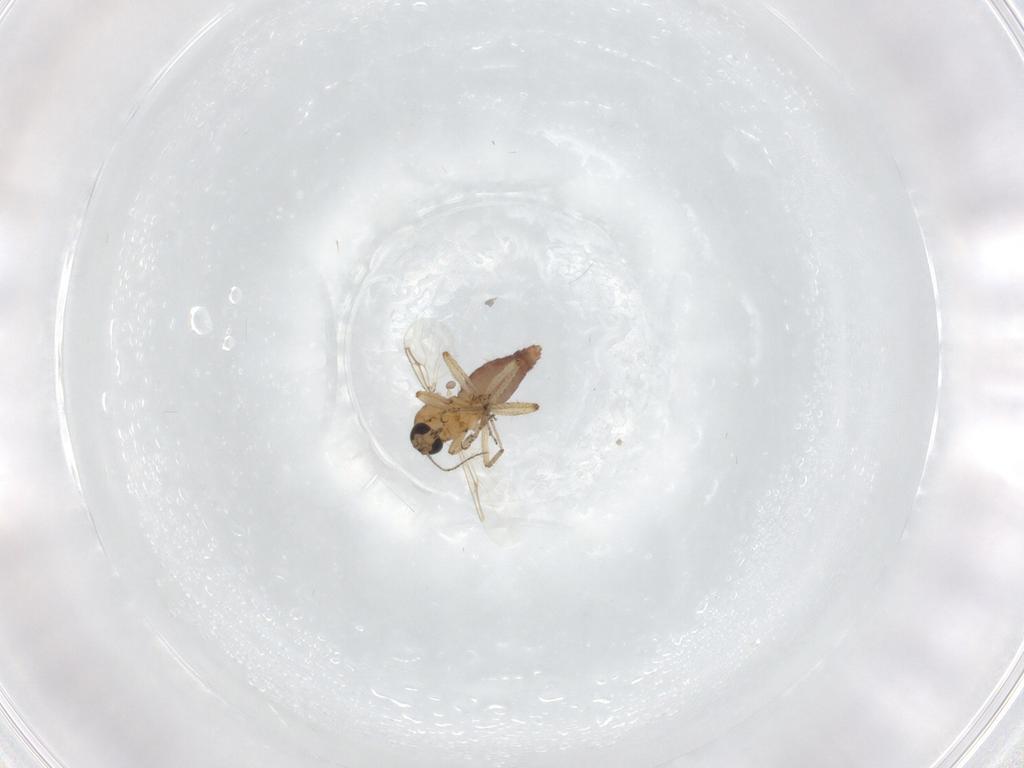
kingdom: Animalia
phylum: Arthropoda
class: Insecta
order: Diptera
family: Ceratopogonidae
